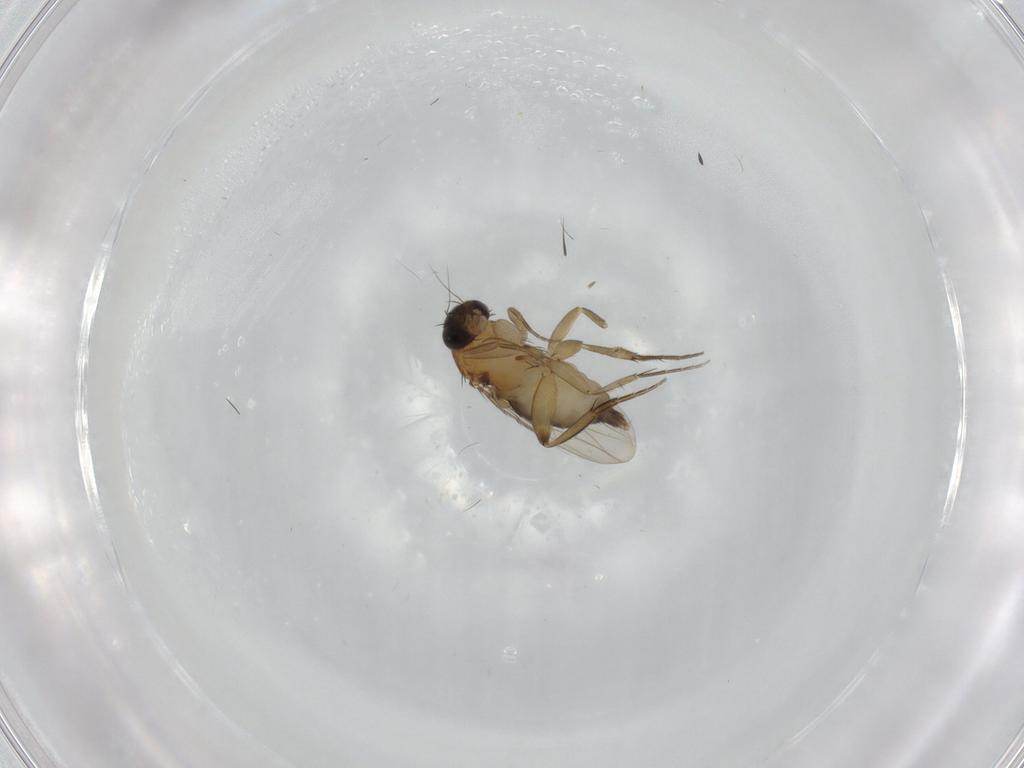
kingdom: Animalia
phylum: Arthropoda
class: Insecta
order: Diptera
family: Phoridae
